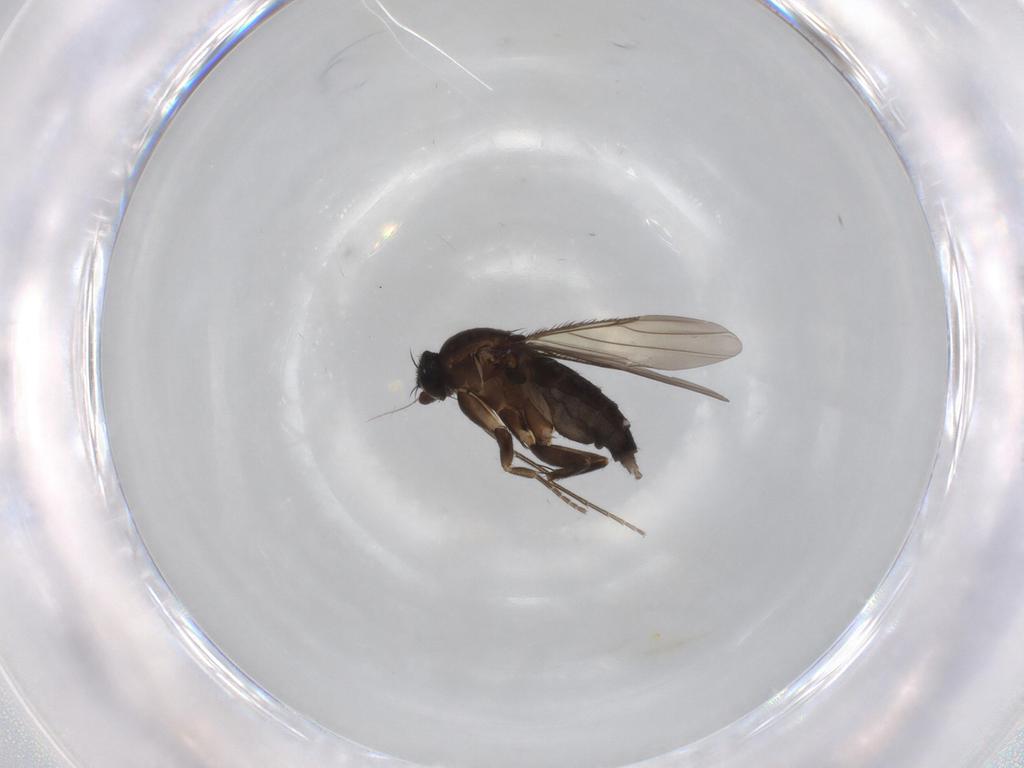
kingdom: Animalia
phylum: Arthropoda
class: Insecta
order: Diptera
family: Phoridae
